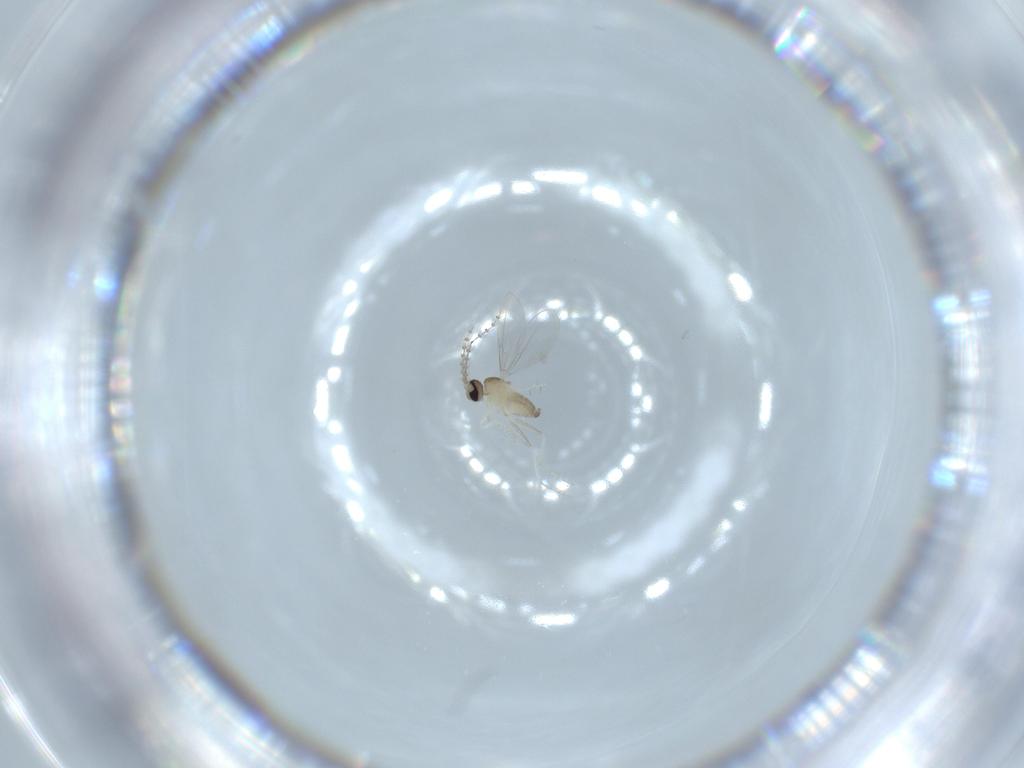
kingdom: Animalia
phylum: Arthropoda
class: Insecta
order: Diptera
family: Cecidomyiidae
